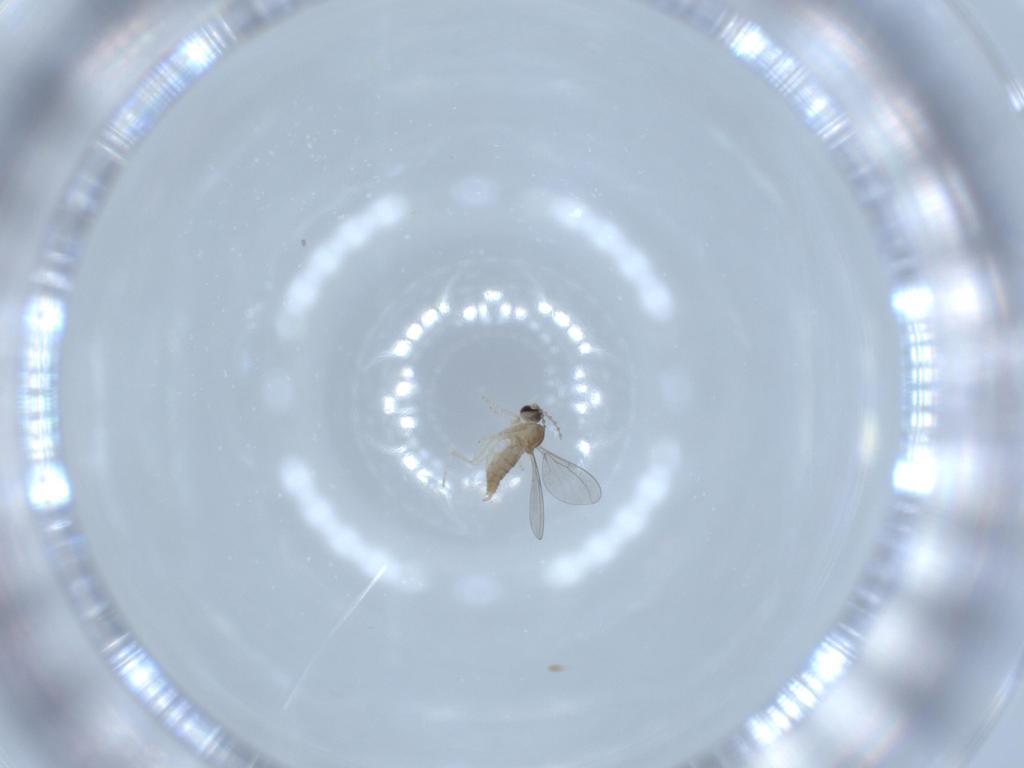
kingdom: Animalia
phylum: Arthropoda
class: Insecta
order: Diptera
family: Cecidomyiidae
